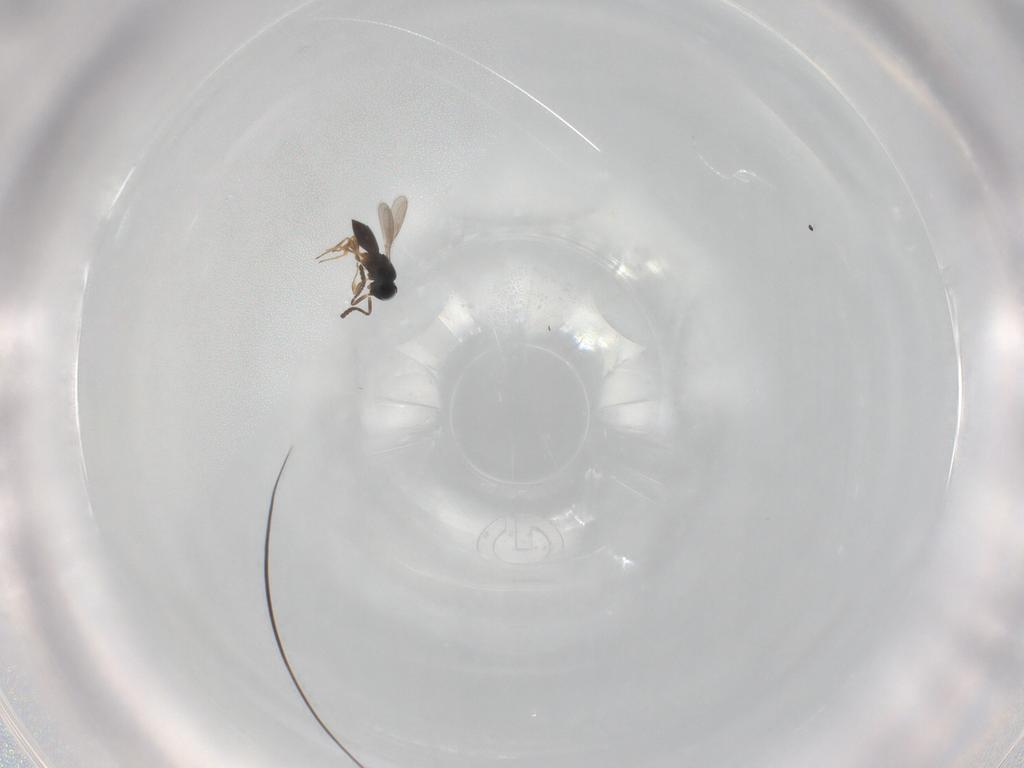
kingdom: Animalia
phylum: Arthropoda
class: Insecta
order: Hymenoptera
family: Scelionidae
